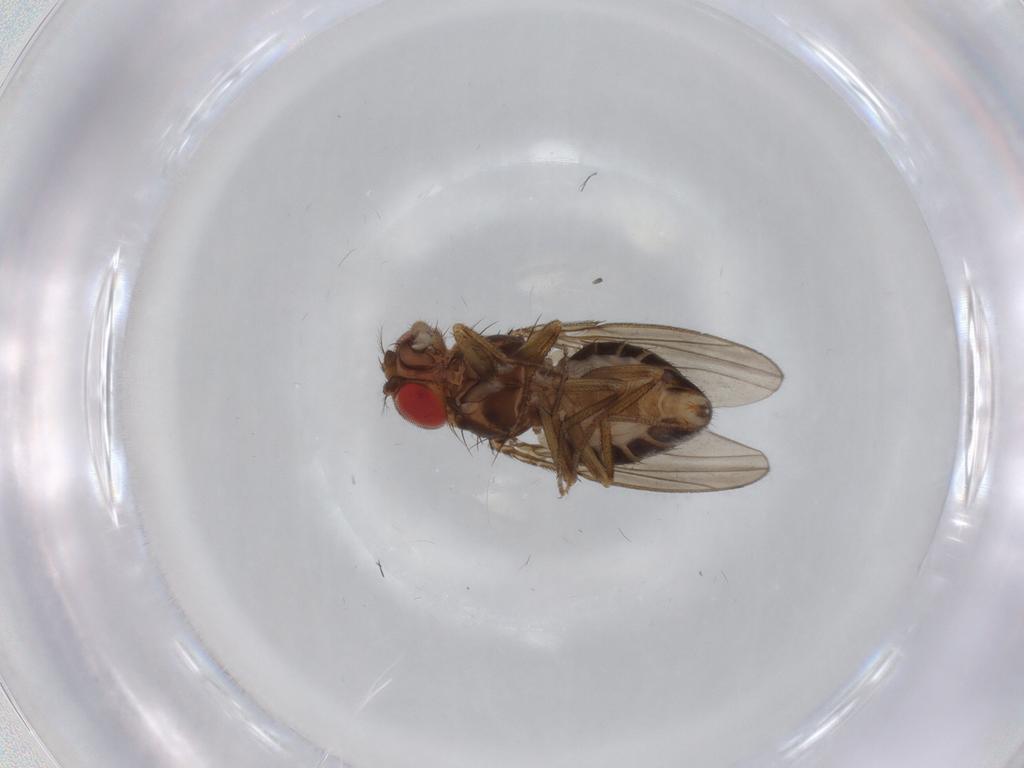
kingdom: Animalia
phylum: Arthropoda
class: Insecta
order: Diptera
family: Drosophilidae
